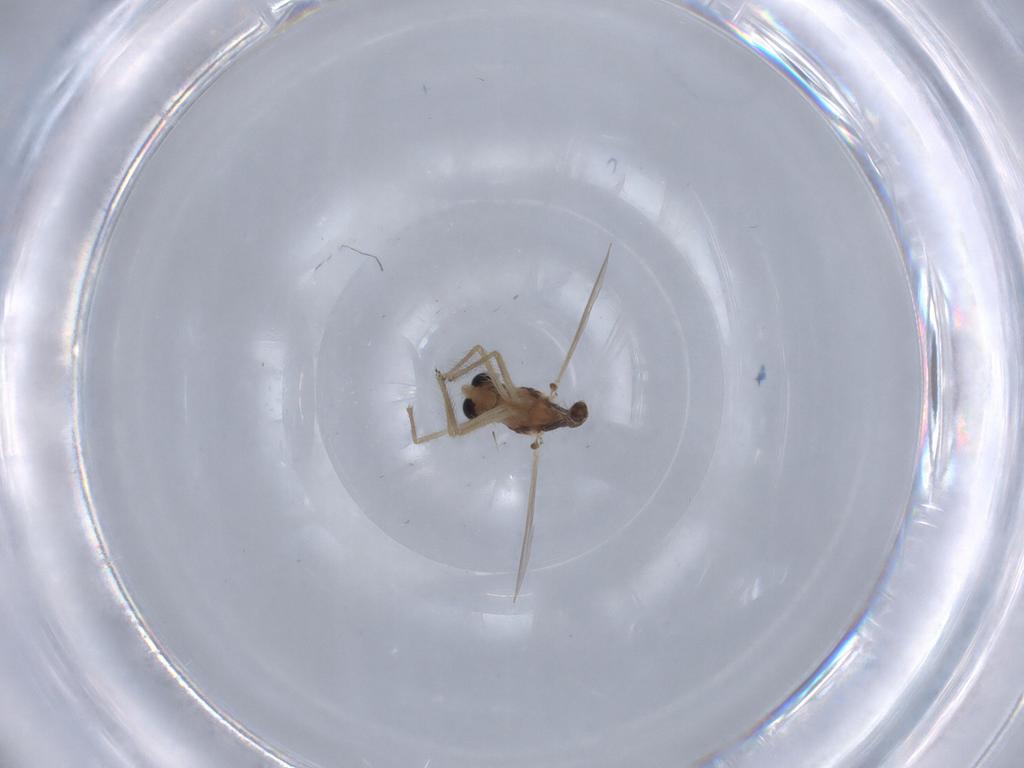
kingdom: Animalia
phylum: Arthropoda
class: Insecta
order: Diptera
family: Chironomidae
